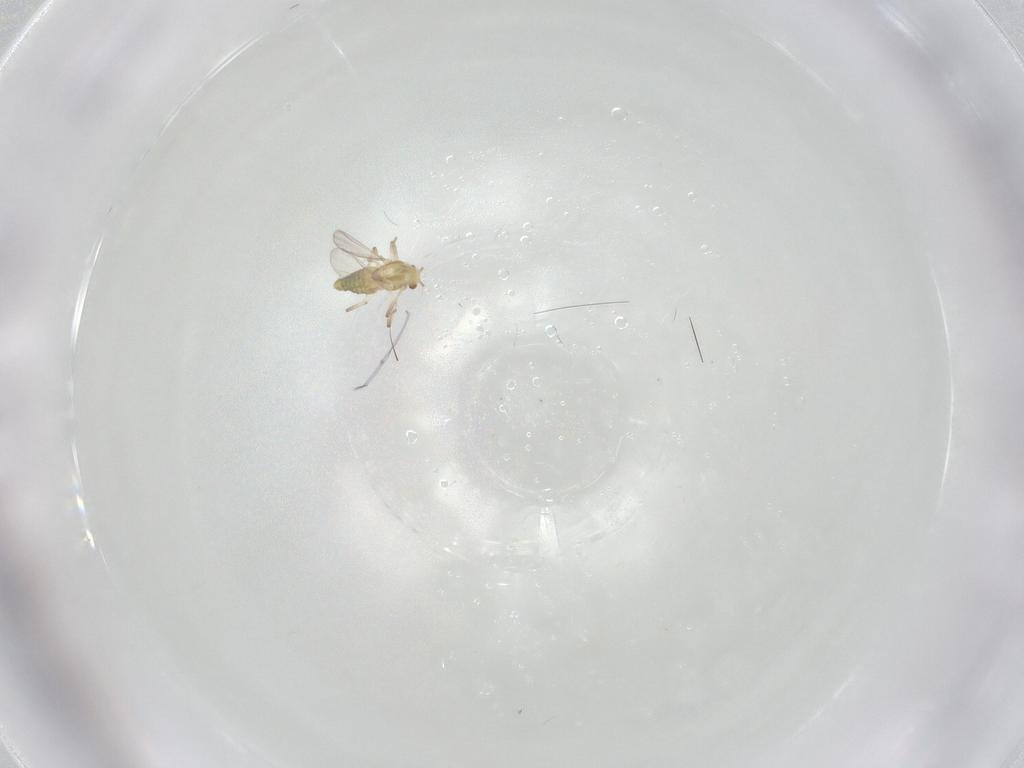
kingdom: Animalia
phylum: Arthropoda
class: Insecta
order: Diptera
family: Chironomidae
